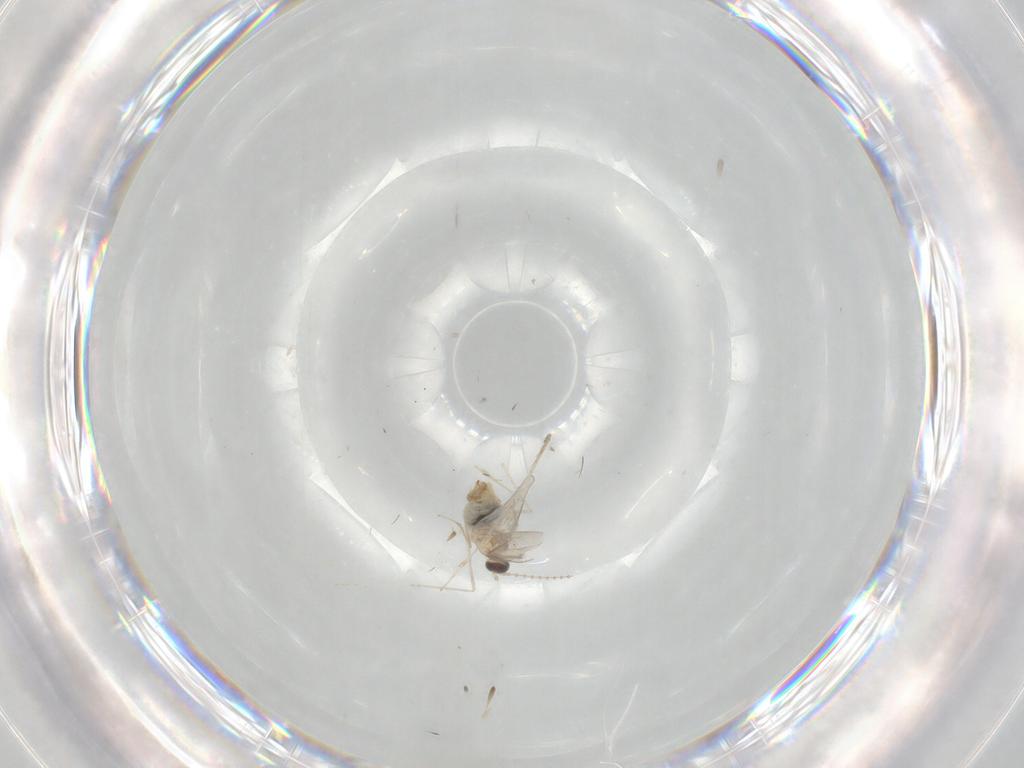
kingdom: Animalia
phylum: Arthropoda
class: Insecta
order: Diptera
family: Cecidomyiidae
